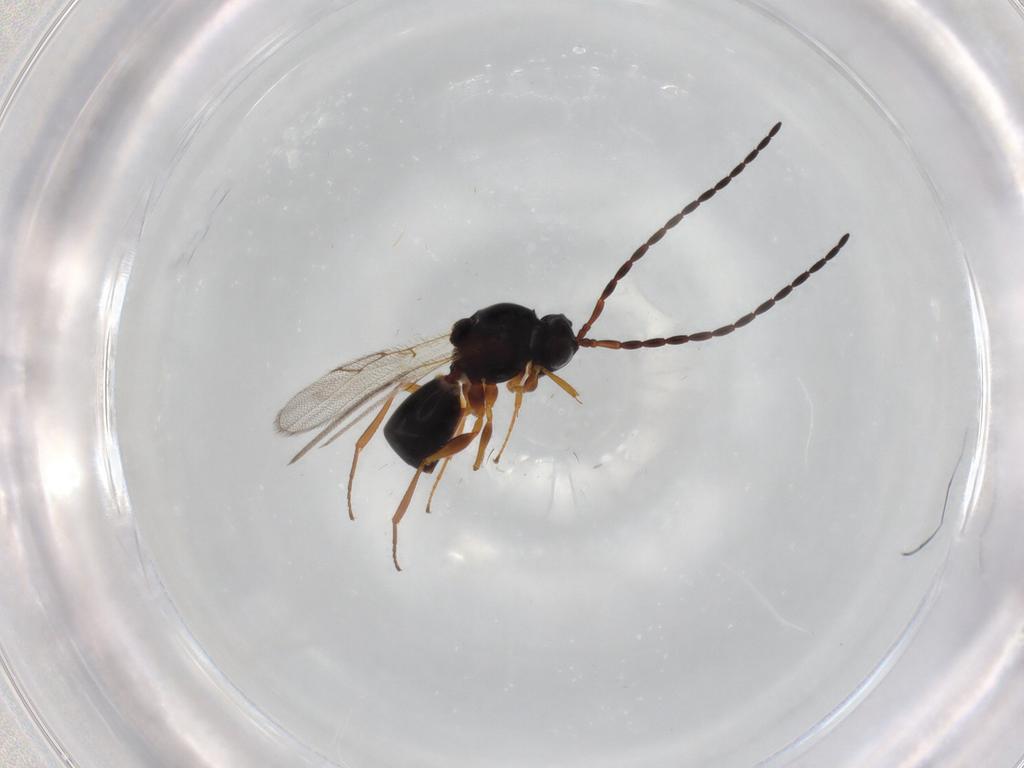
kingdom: Animalia
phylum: Arthropoda
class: Insecta
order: Hymenoptera
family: Figitidae
